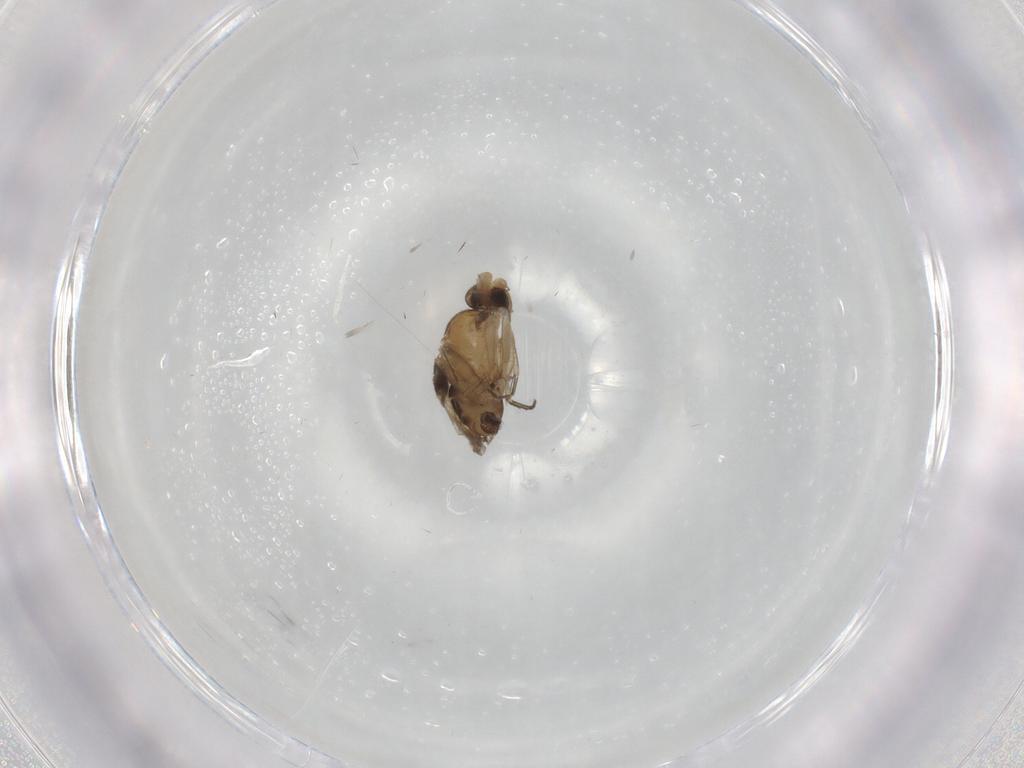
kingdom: Animalia
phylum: Arthropoda
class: Insecta
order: Diptera
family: Phoridae
